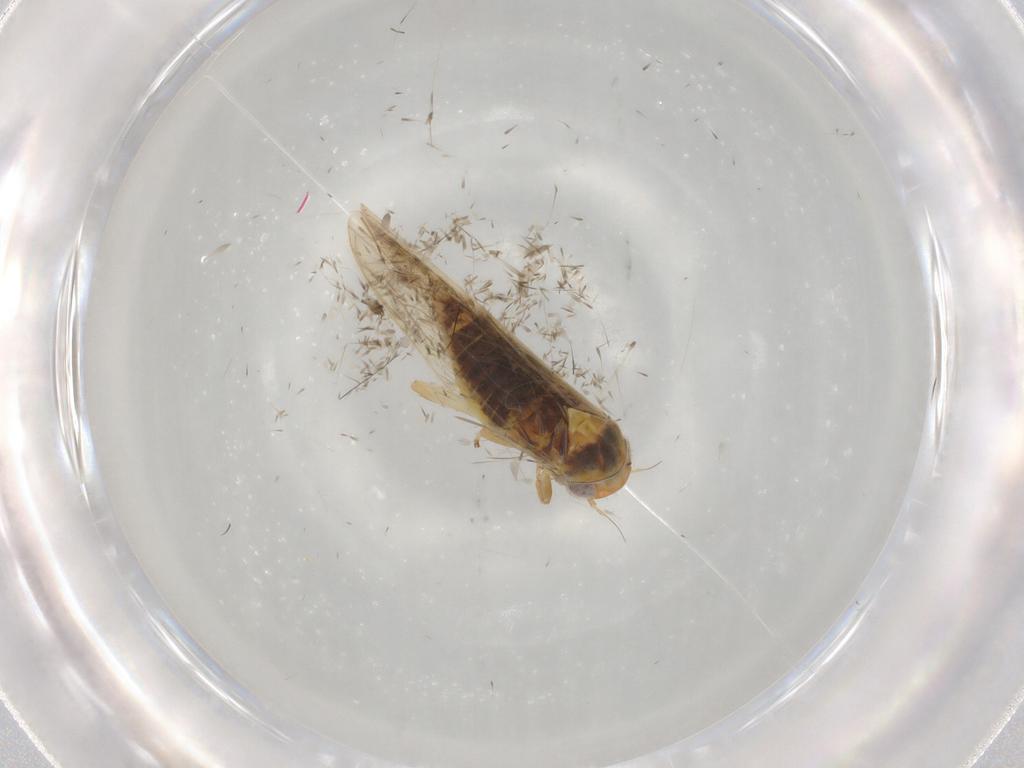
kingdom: Animalia
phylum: Arthropoda
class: Insecta
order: Hemiptera
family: Cicadellidae
